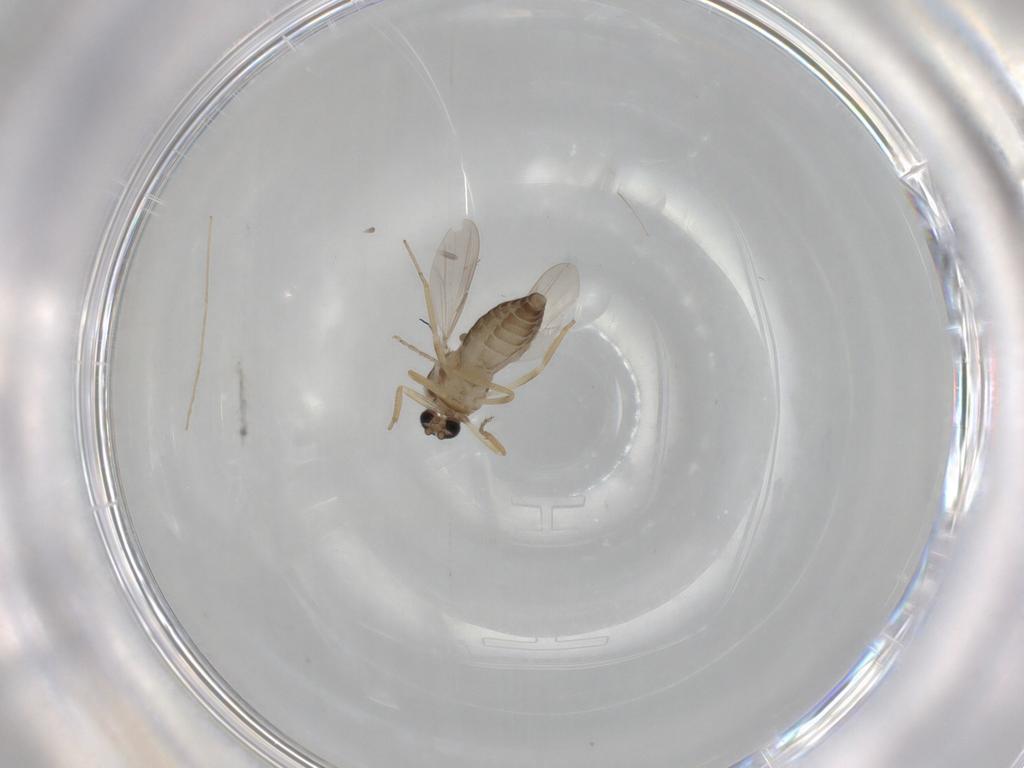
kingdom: Animalia
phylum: Arthropoda
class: Insecta
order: Diptera
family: Ceratopogonidae
